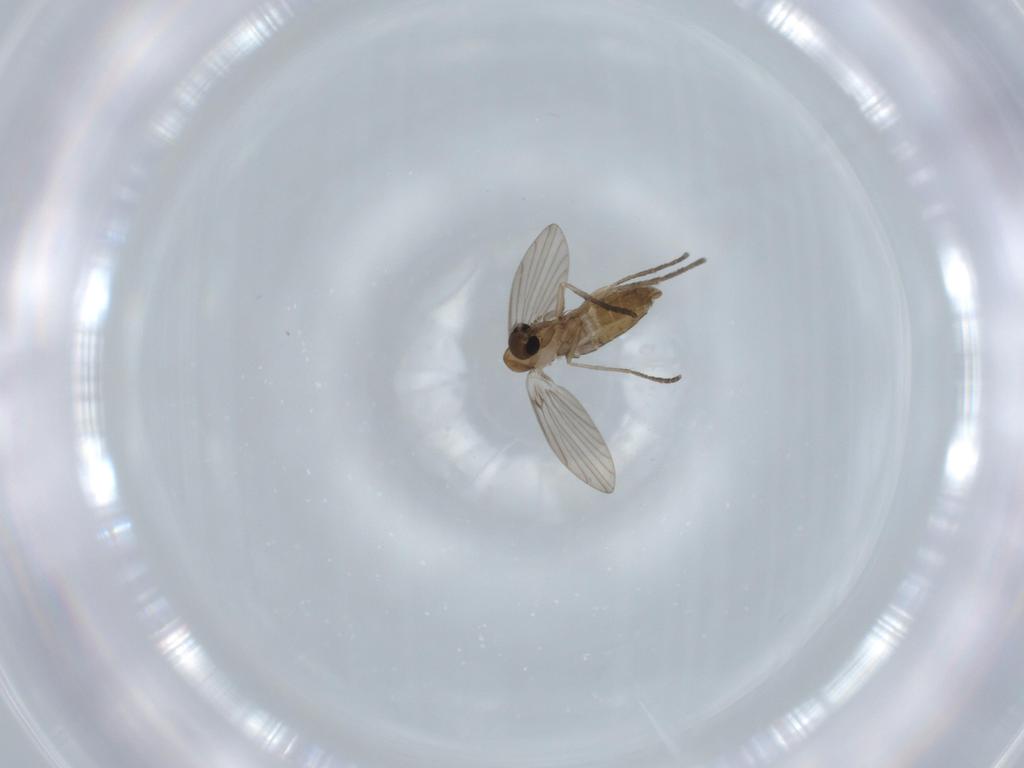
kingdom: Animalia
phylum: Arthropoda
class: Insecta
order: Diptera
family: Psychodidae
